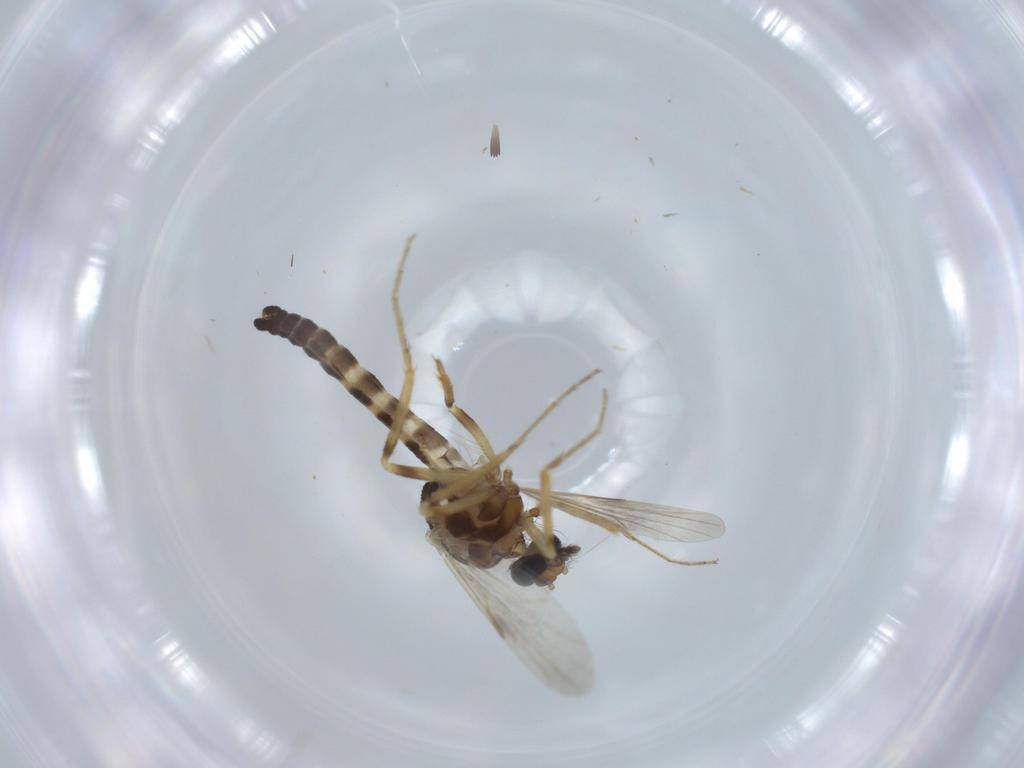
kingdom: Animalia
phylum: Arthropoda
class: Insecta
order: Diptera
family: Ceratopogonidae
